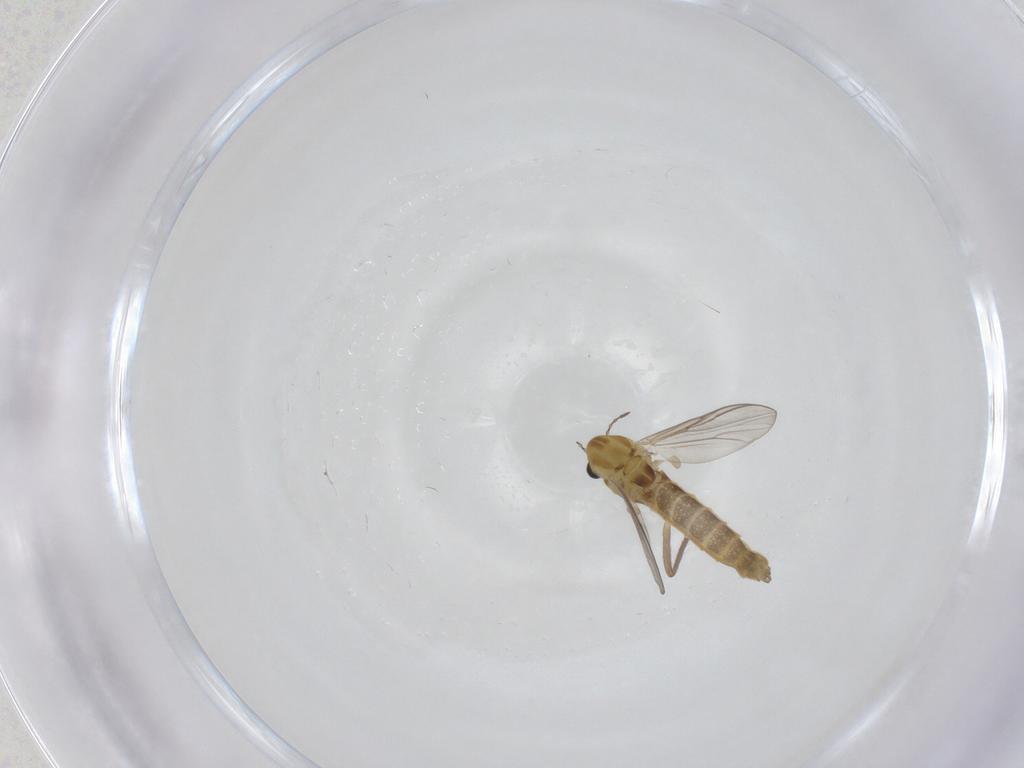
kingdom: Animalia
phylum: Arthropoda
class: Insecta
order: Diptera
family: Chironomidae
